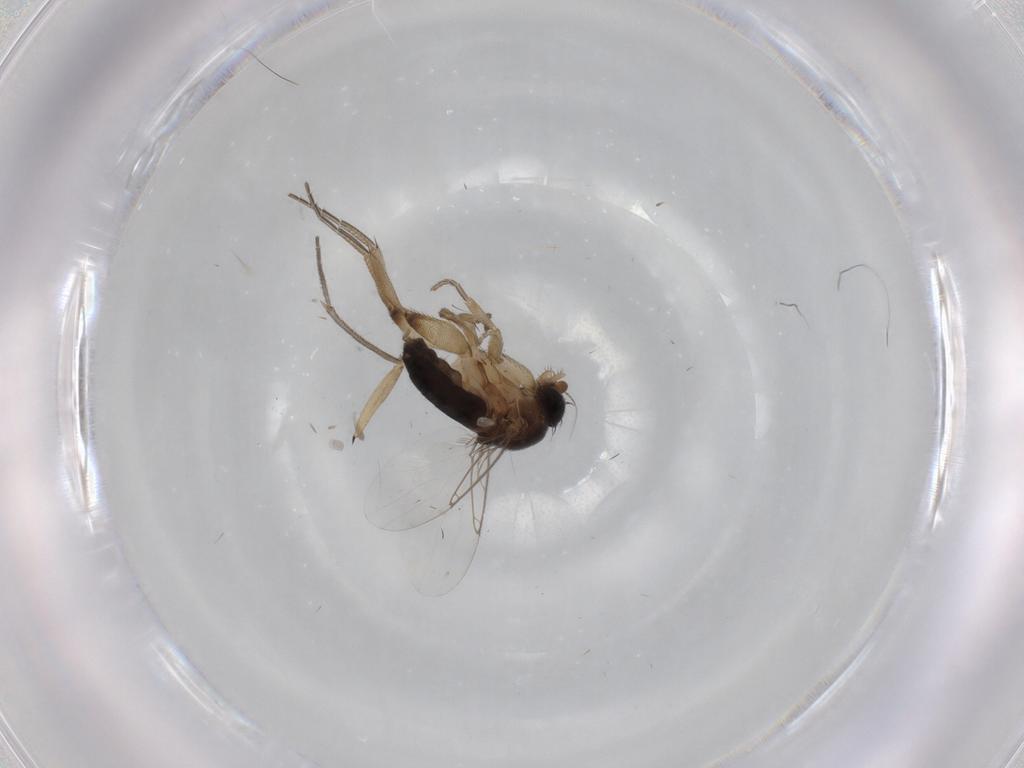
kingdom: Animalia
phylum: Arthropoda
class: Insecta
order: Diptera
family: Phoridae
